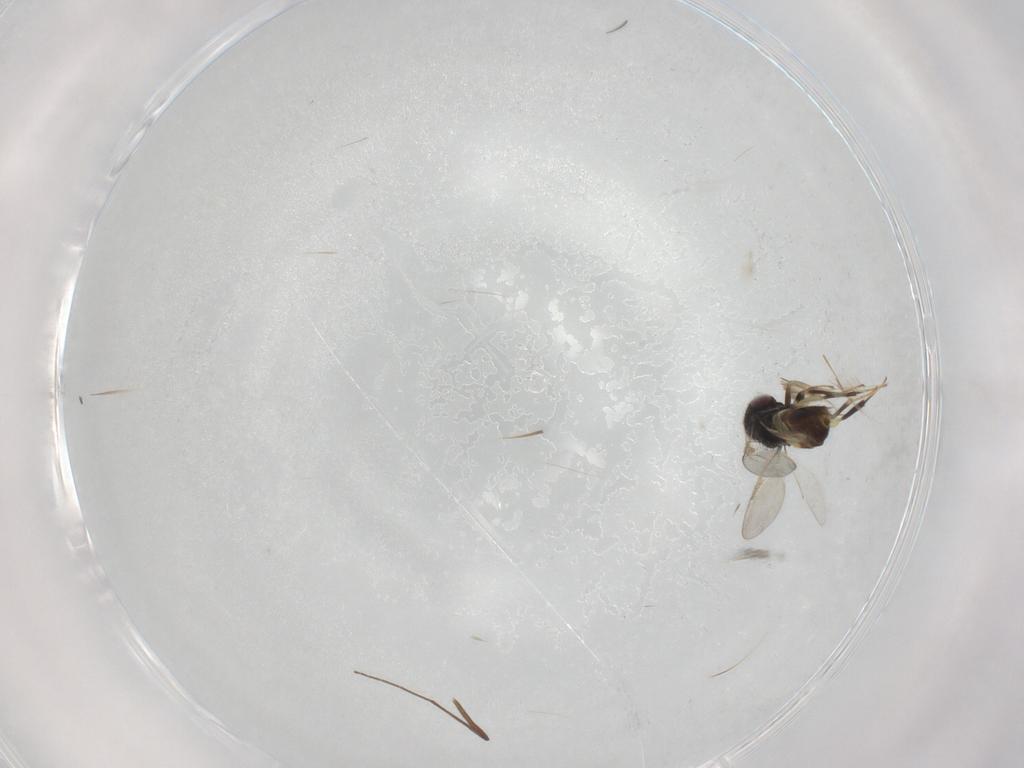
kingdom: Animalia
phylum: Arthropoda
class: Insecta
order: Hymenoptera
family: Aphelinidae
